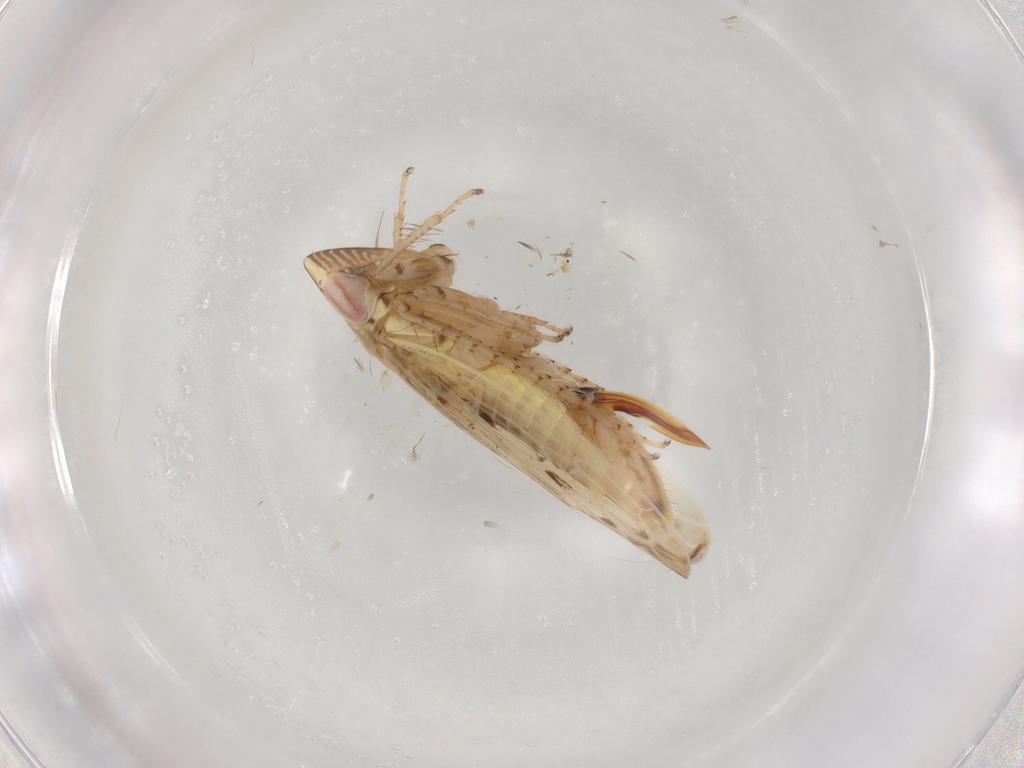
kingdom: Animalia
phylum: Arthropoda
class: Insecta
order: Hemiptera
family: Cicadellidae
